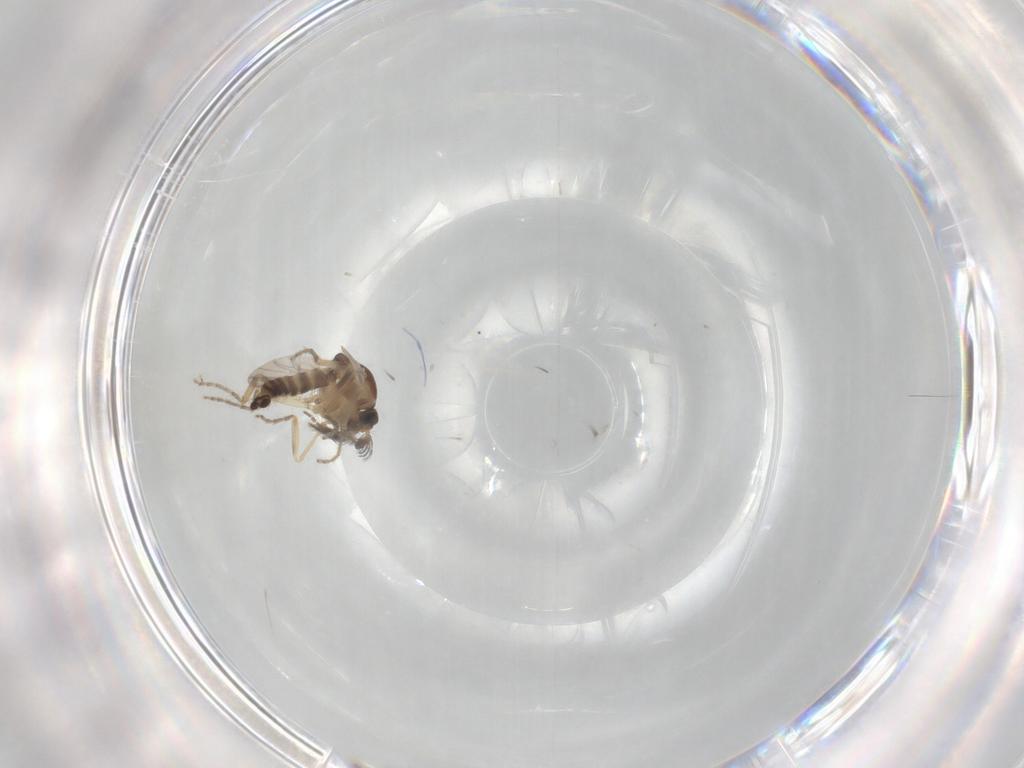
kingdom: Animalia
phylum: Arthropoda
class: Insecta
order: Diptera
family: Ceratopogonidae
